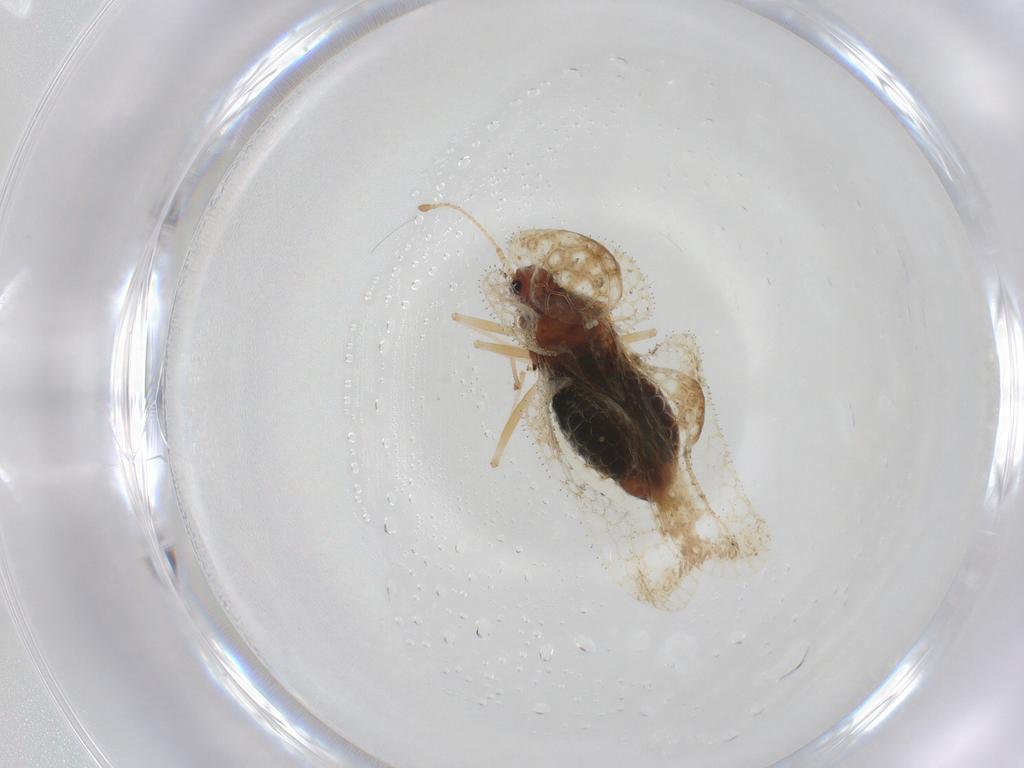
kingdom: Animalia
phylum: Arthropoda
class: Insecta
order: Hemiptera
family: Tingidae
